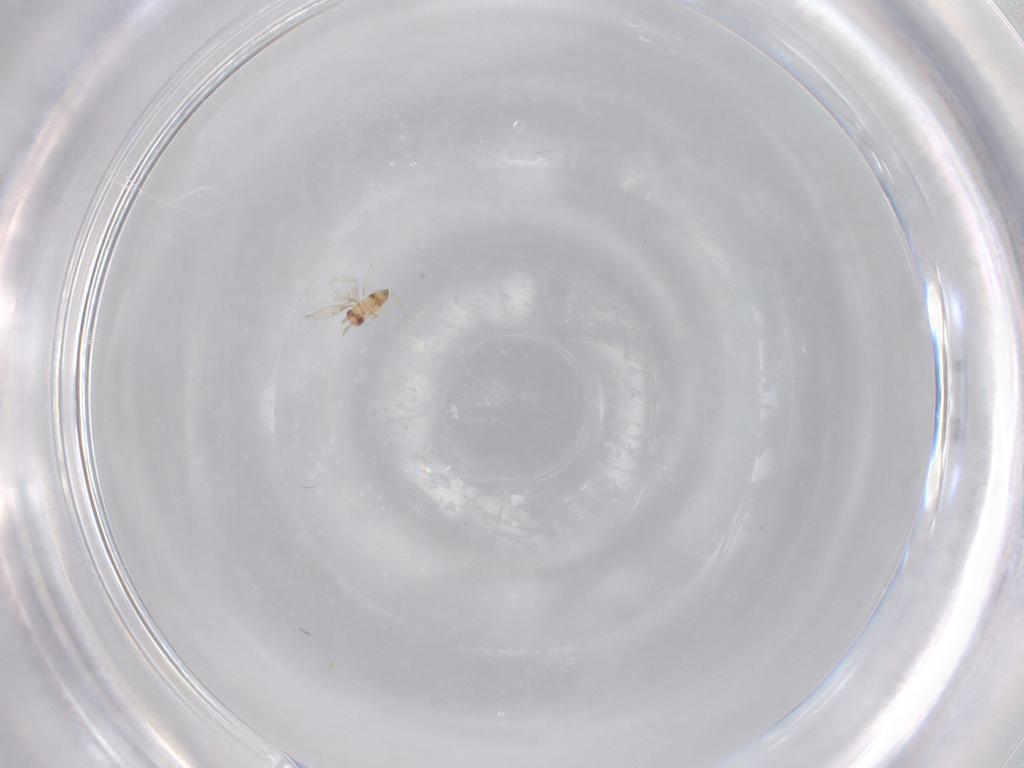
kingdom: Animalia
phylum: Arthropoda
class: Insecta
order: Hymenoptera
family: Trichogrammatidae
